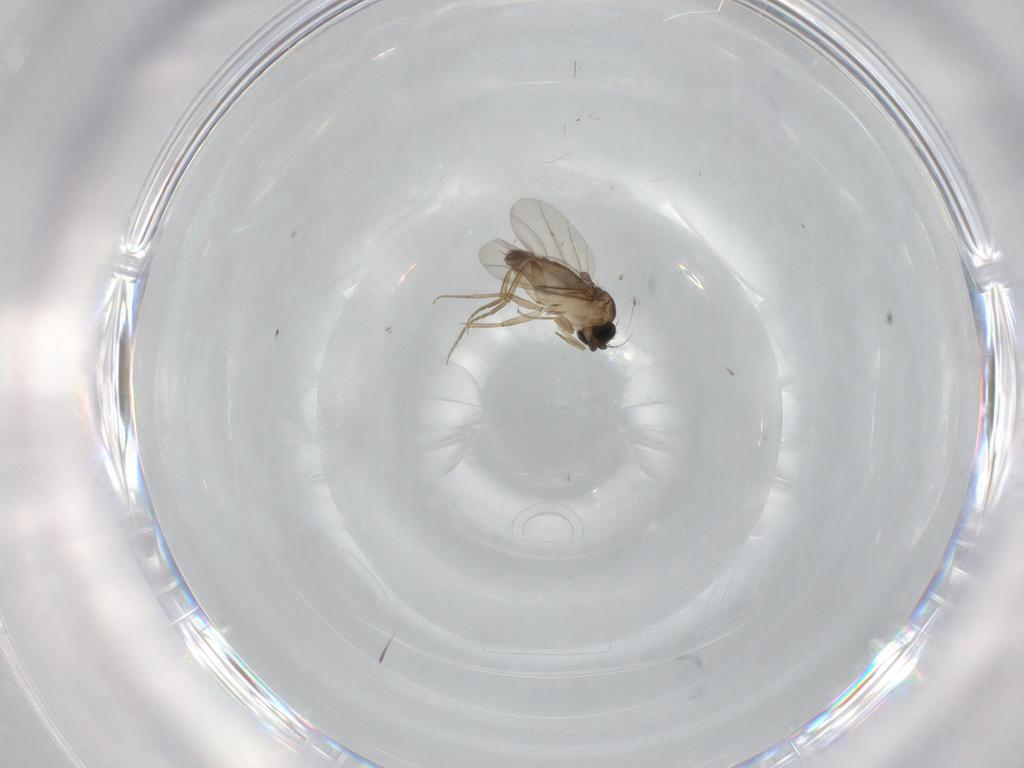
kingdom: Animalia
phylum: Arthropoda
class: Insecta
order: Diptera
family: Phoridae
